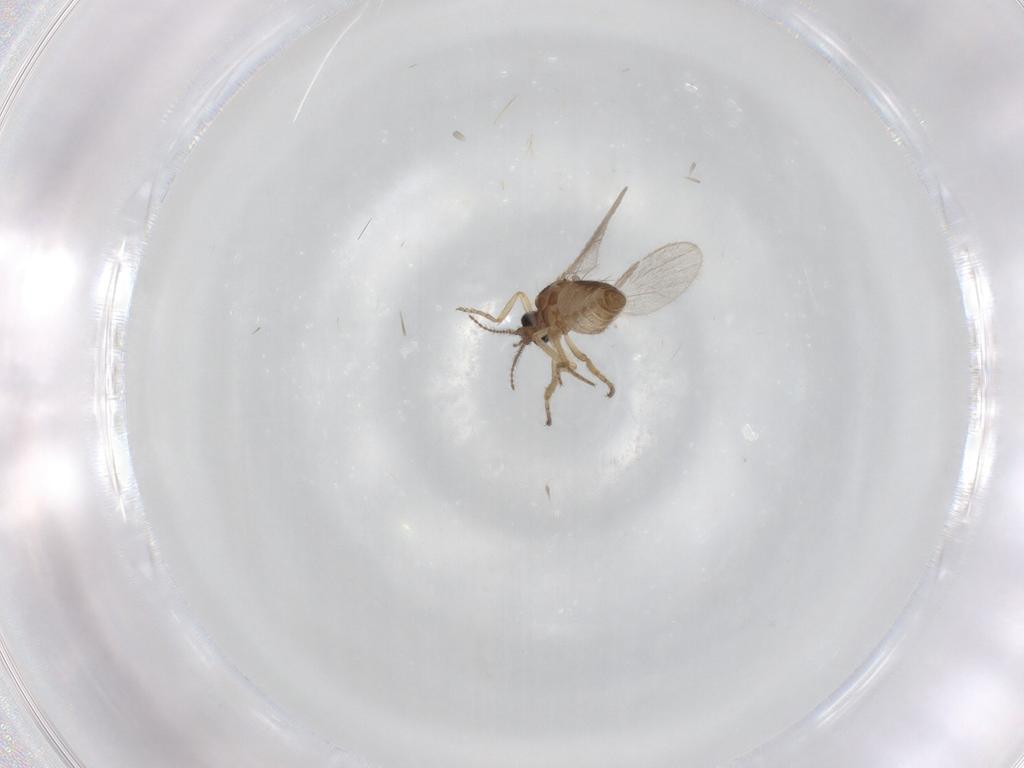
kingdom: Animalia
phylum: Arthropoda
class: Insecta
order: Diptera
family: Ceratopogonidae
